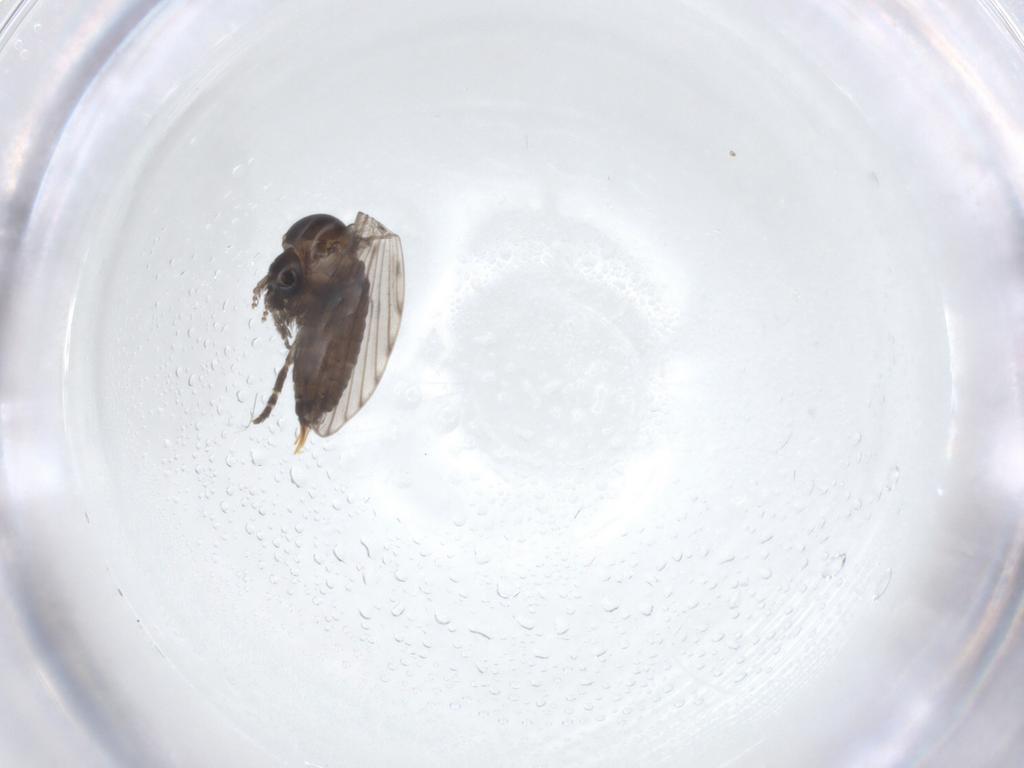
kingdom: Animalia
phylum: Arthropoda
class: Insecta
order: Diptera
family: Psychodidae
